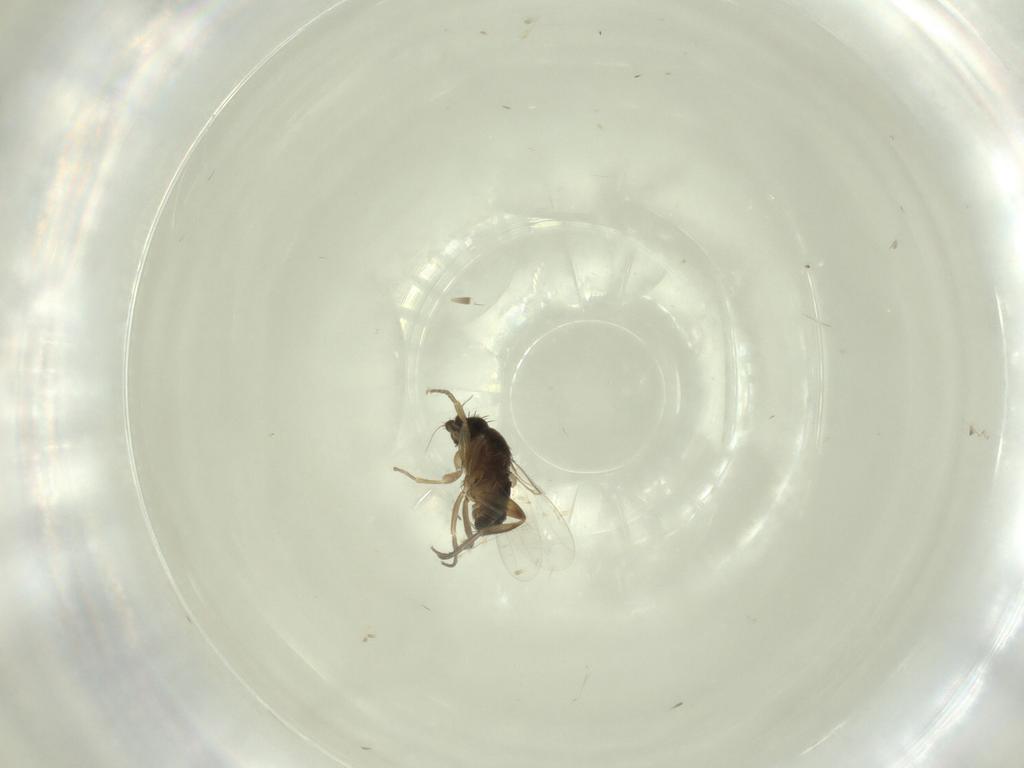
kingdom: Animalia
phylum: Arthropoda
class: Insecta
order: Diptera
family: Phoridae
